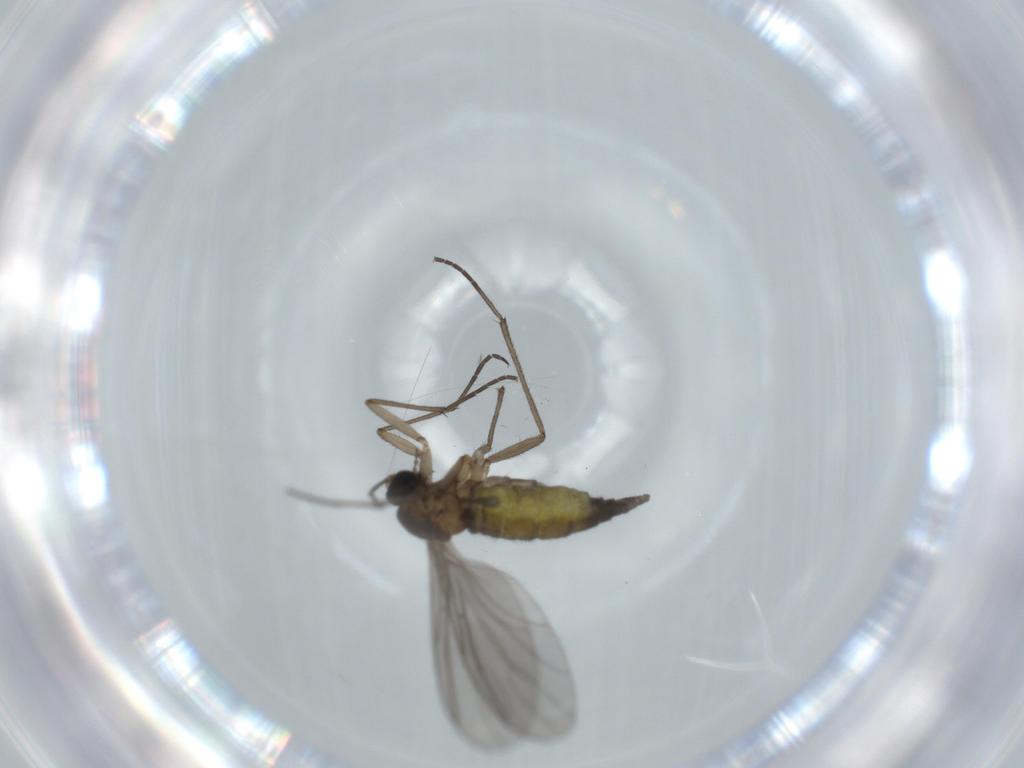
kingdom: Animalia
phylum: Arthropoda
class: Insecta
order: Diptera
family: Sciaridae
